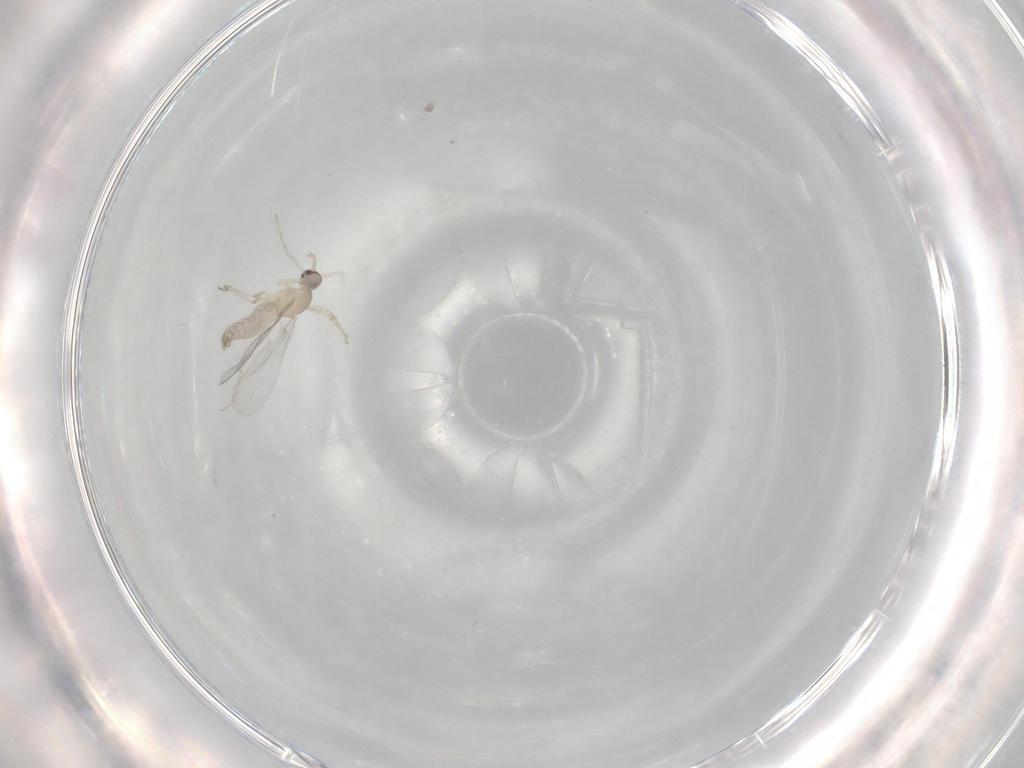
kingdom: Animalia
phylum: Arthropoda
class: Insecta
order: Diptera
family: Cecidomyiidae
